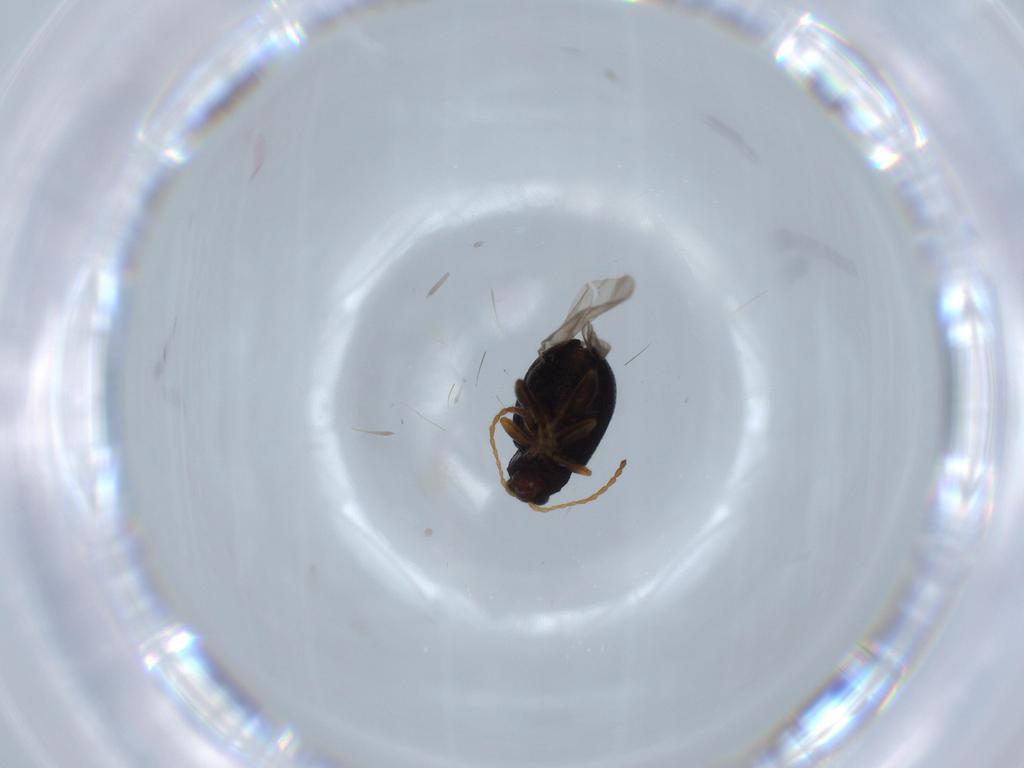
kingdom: Animalia
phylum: Arthropoda
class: Insecta
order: Coleoptera
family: Chrysomelidae
